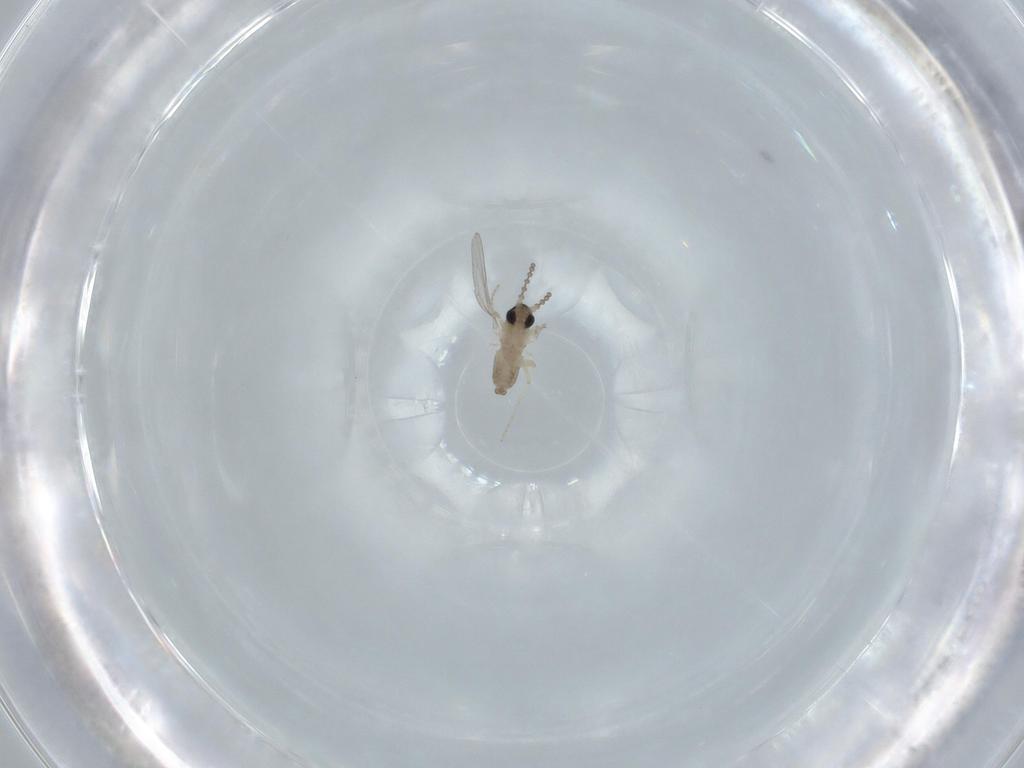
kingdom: Animalia
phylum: Arthropoda
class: Insecta
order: Diptera
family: Cecidomyiidae
